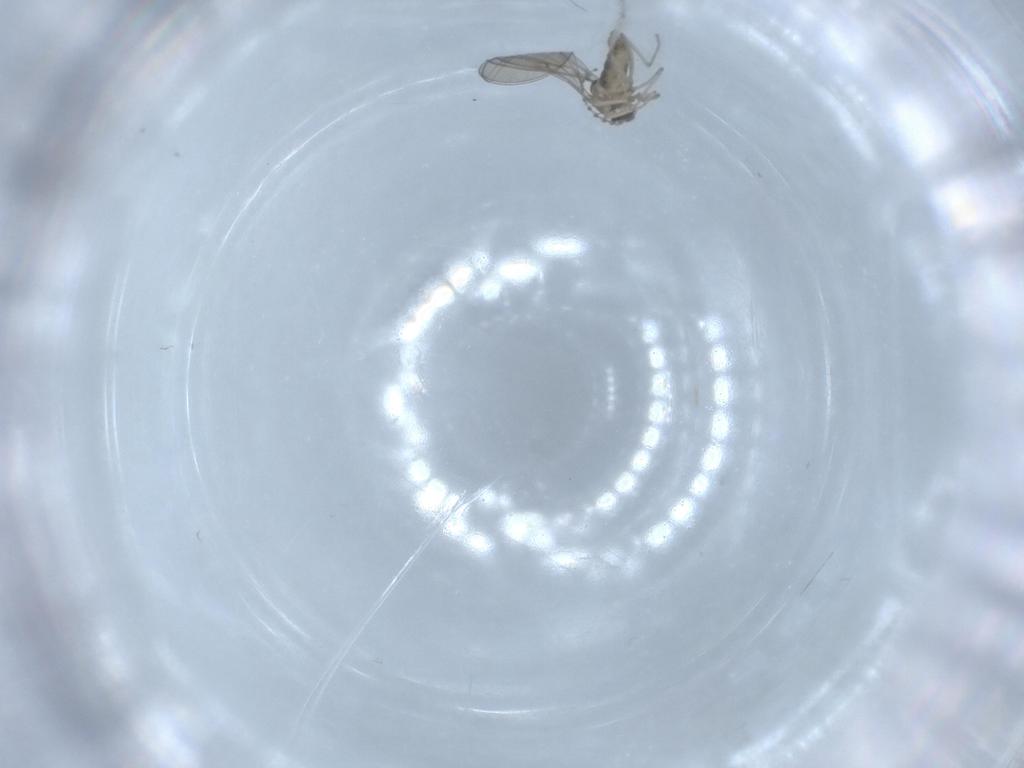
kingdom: Animalia
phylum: Arthropoda
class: Insecta
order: Diptera
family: Cecidomyiidae
